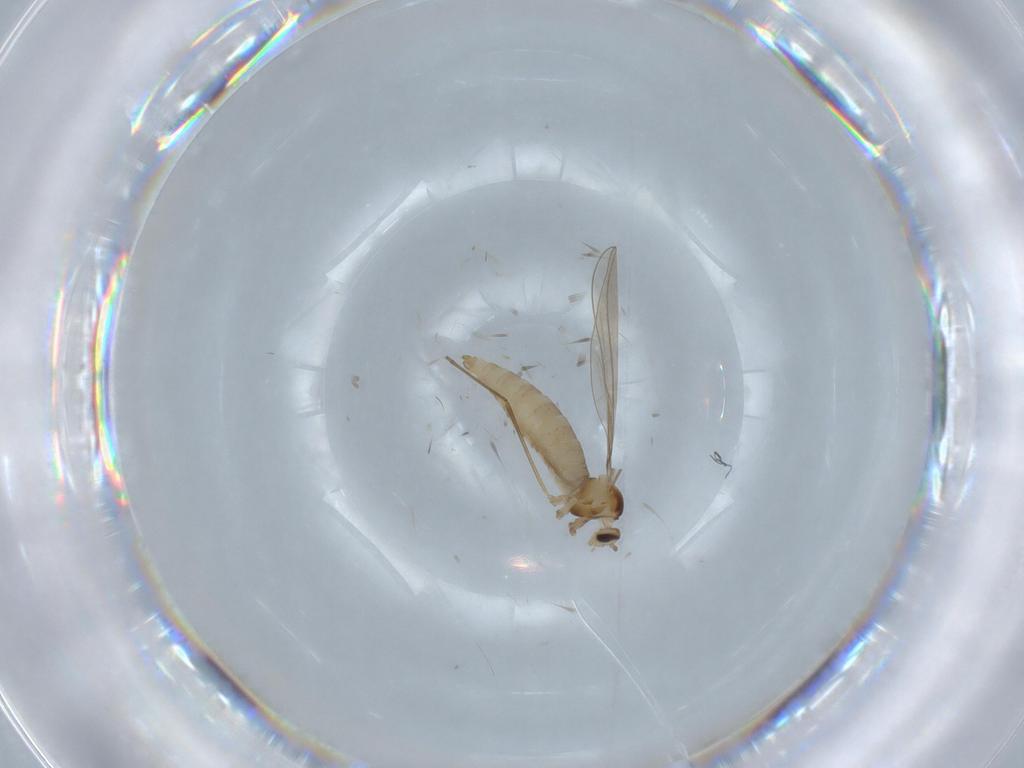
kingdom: Animalia
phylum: Arthropoda
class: Insecta
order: Diptera
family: Cecidomyiidae
